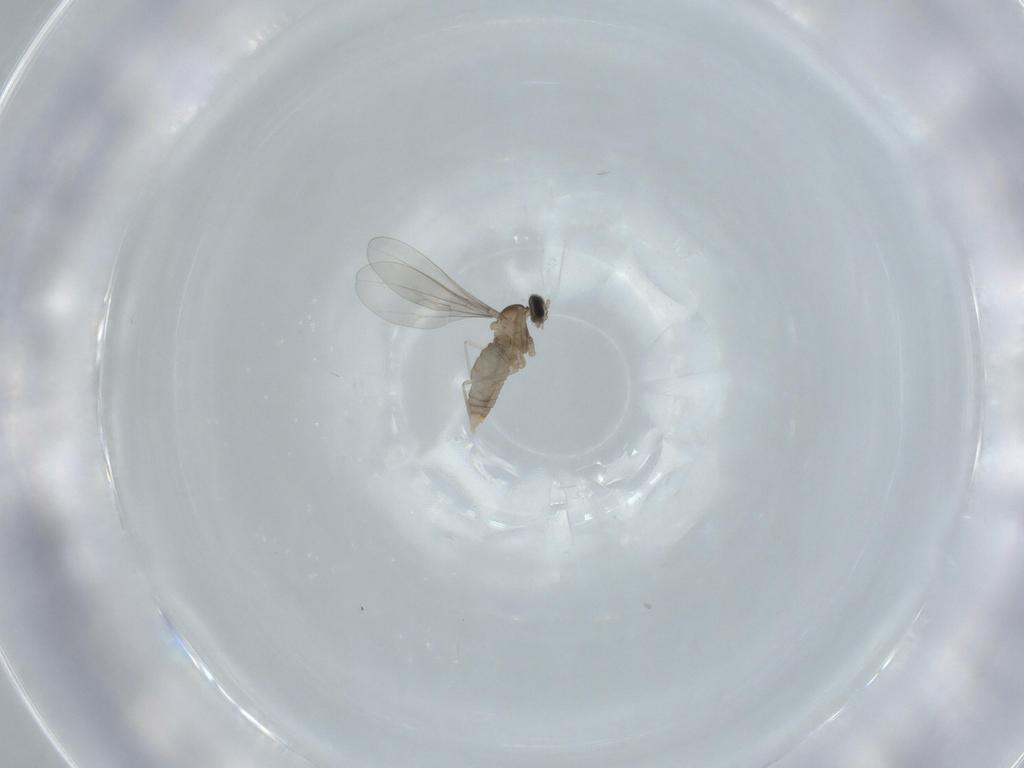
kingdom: Animalia
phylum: Arthropoda
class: Insecta
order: Diptera
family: Cecidomyiidae
